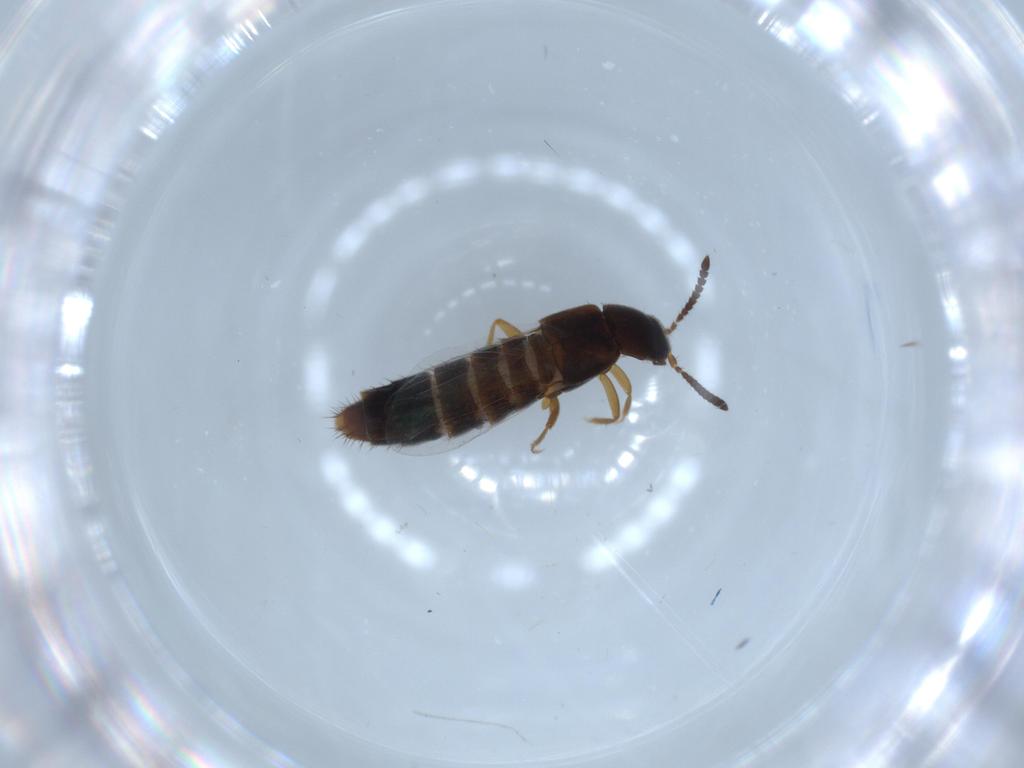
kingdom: Animalia
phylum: Arthropoda
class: Insecta
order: Coleoptera
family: Staphylinidae
